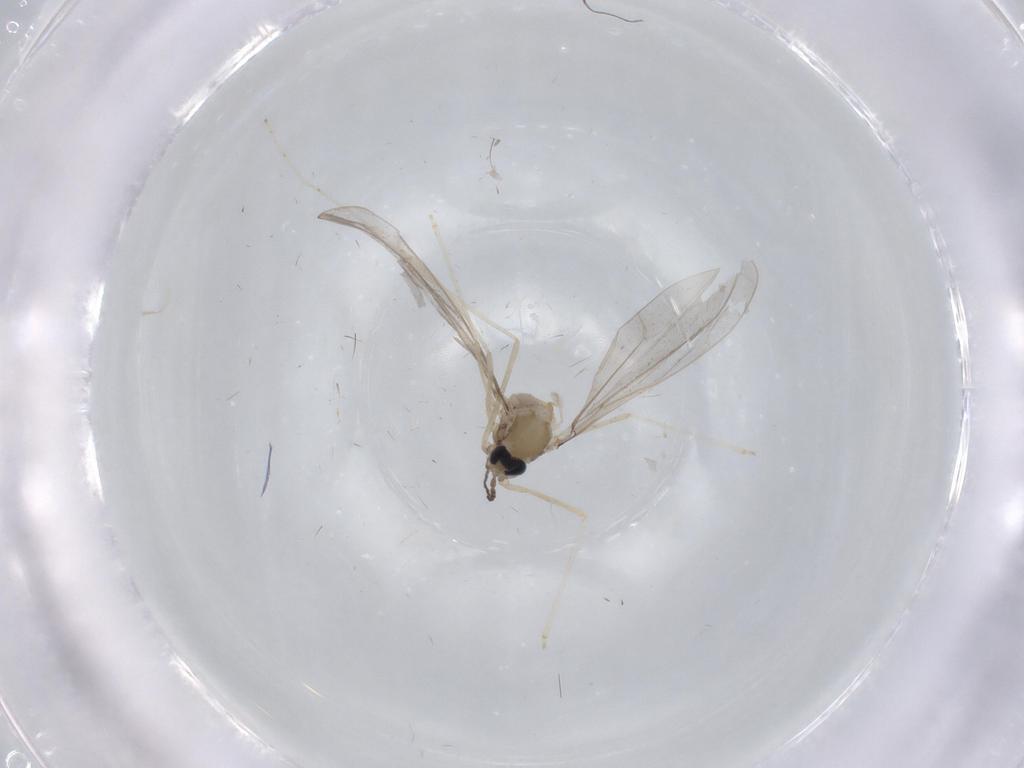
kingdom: Animalia
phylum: Arthropoda
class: Insecta
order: Diptera
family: Cecidomyiidae
